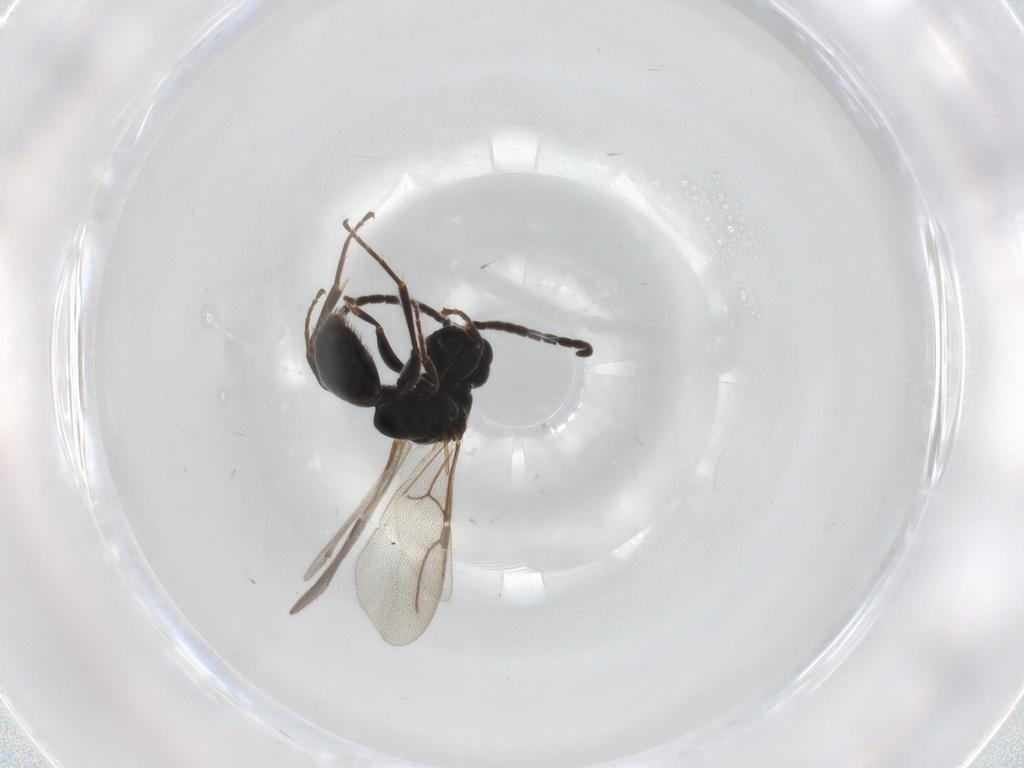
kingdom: Animalia
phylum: Arthropoda
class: Insecta
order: Hymenoptera
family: Bethylidae
